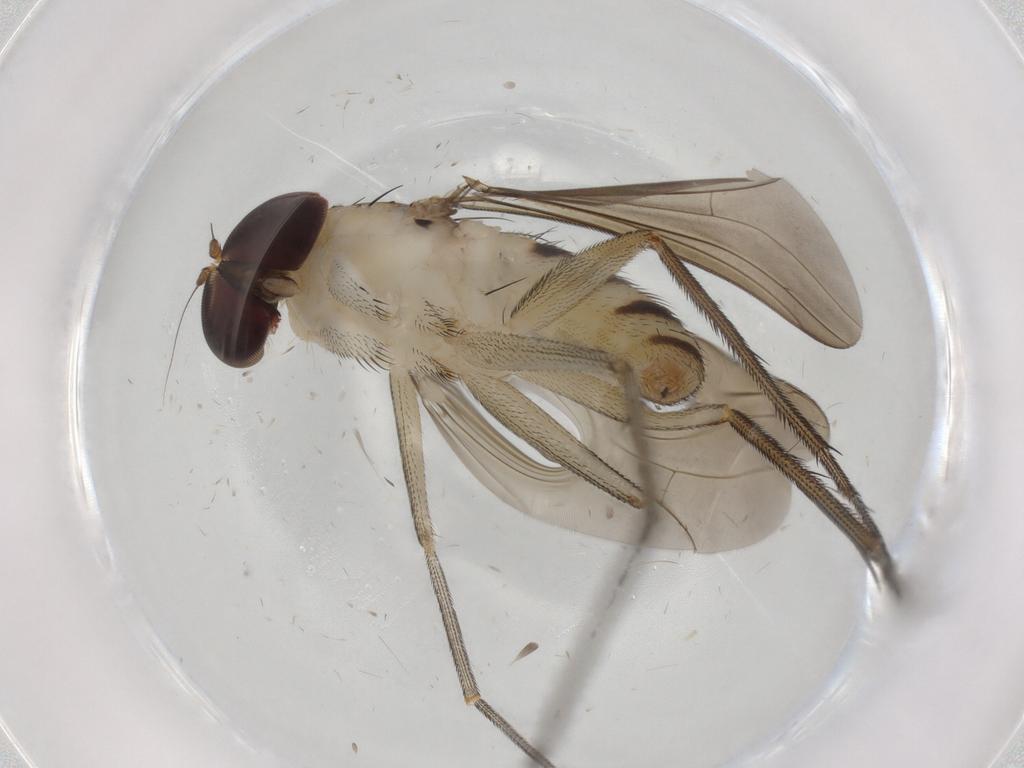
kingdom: Animalia
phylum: Arthropoda
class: Insecta
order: Diptera
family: Dolichopodidae
